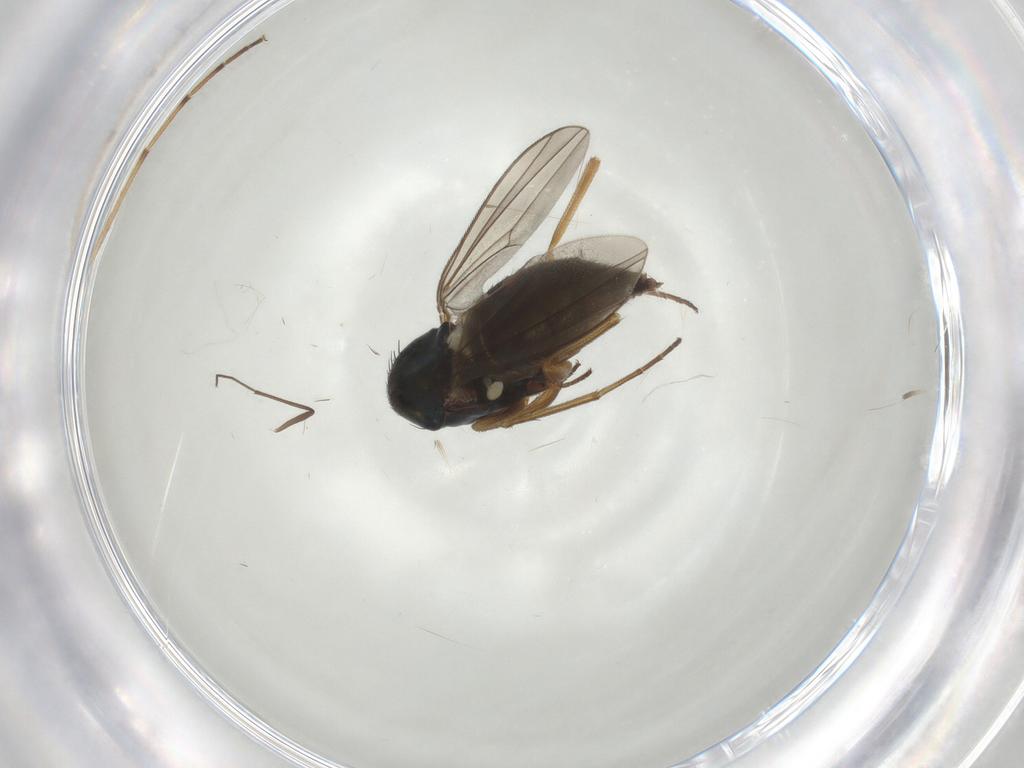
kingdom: Animalia
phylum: Arthropoda
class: Insecta
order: Diptera
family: Dolichopodidae
